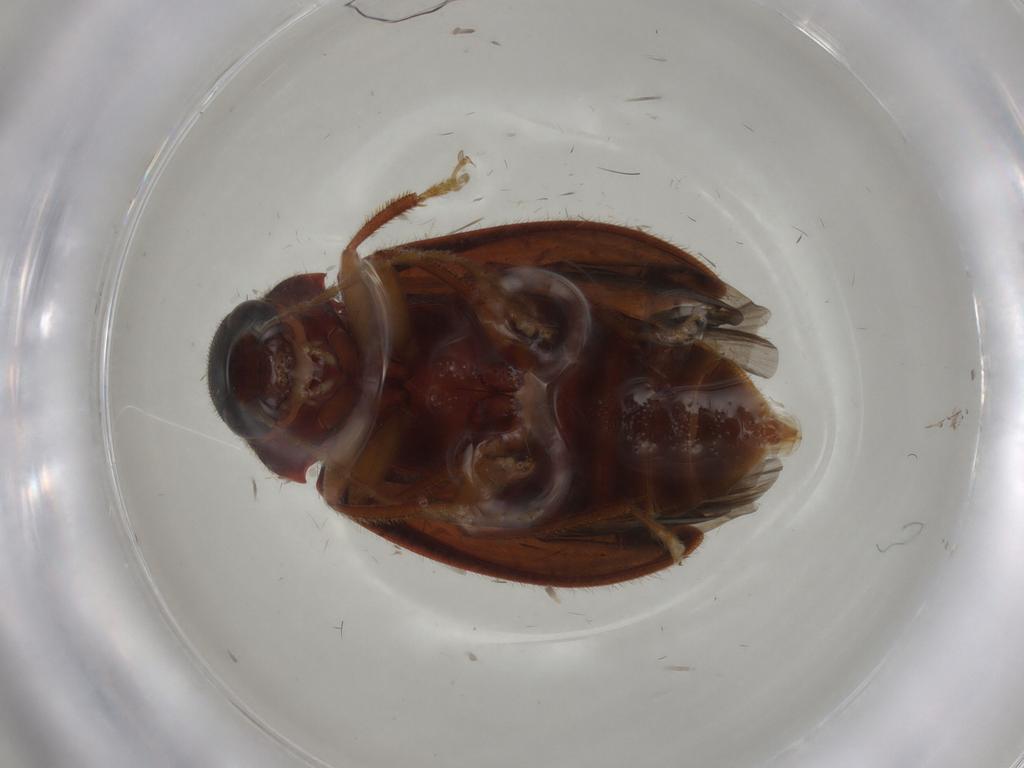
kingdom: Animalia
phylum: Arthropoda
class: Insecta
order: Coleoptera
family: Ptilodactylidae
